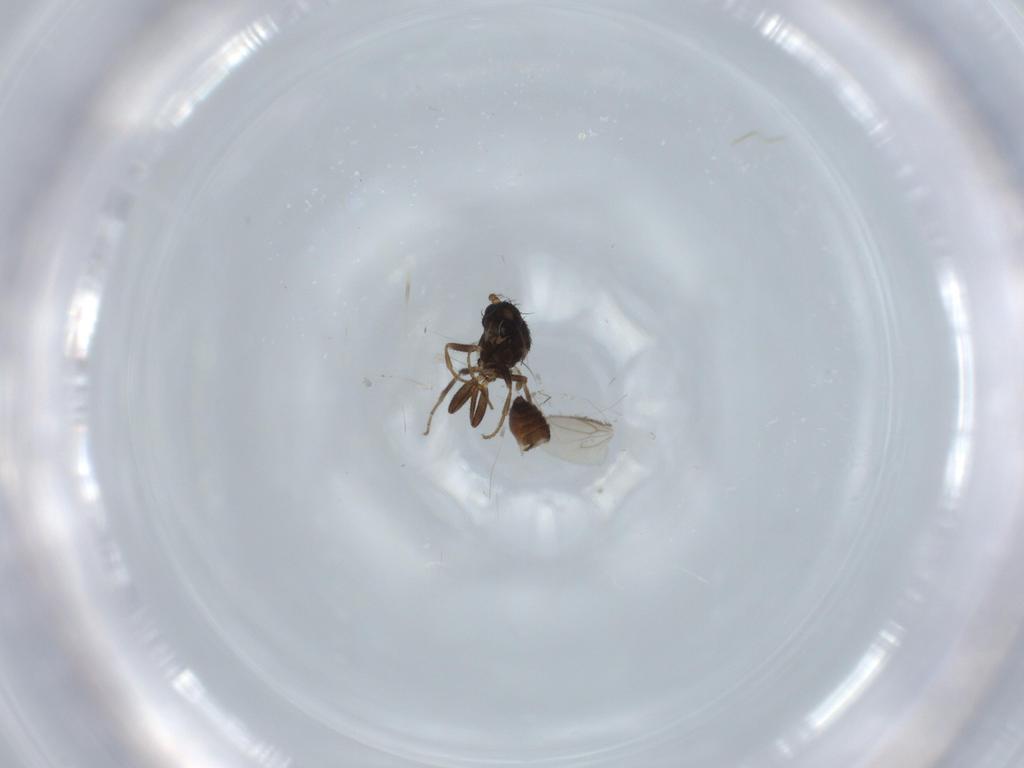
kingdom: Animalia
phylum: Arthropoda
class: Insecta
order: Diptera
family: Sphaeroceridae
